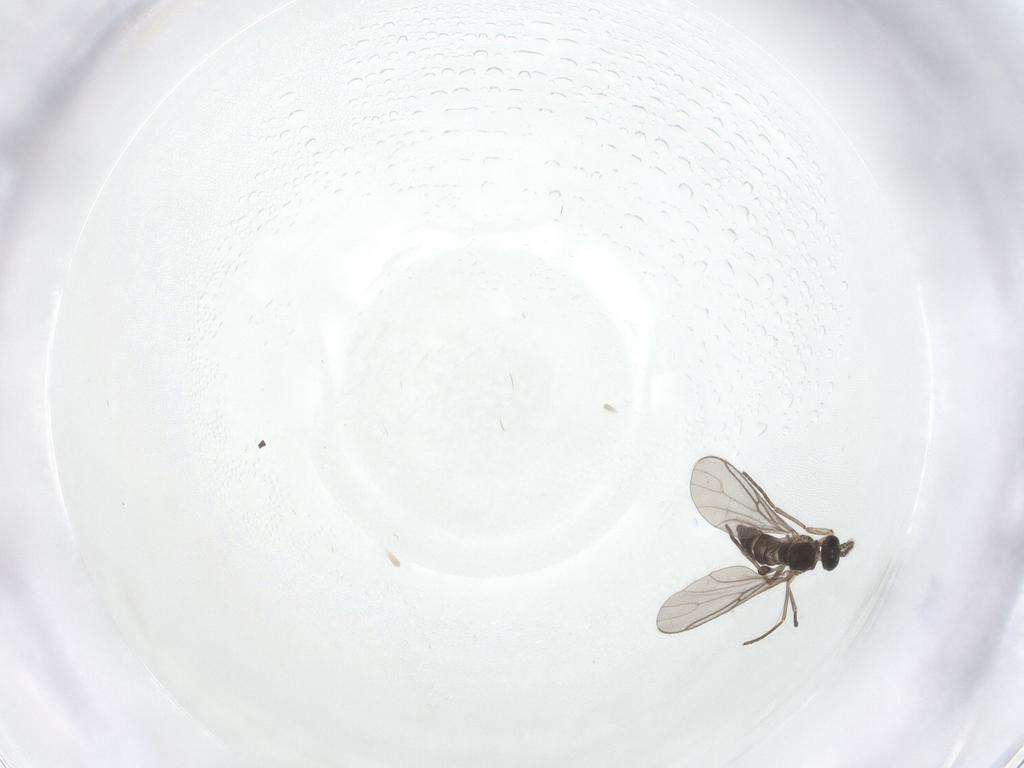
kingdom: Animalia
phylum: Arthropoda
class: Insecta
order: Diptera
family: Sciaridae
